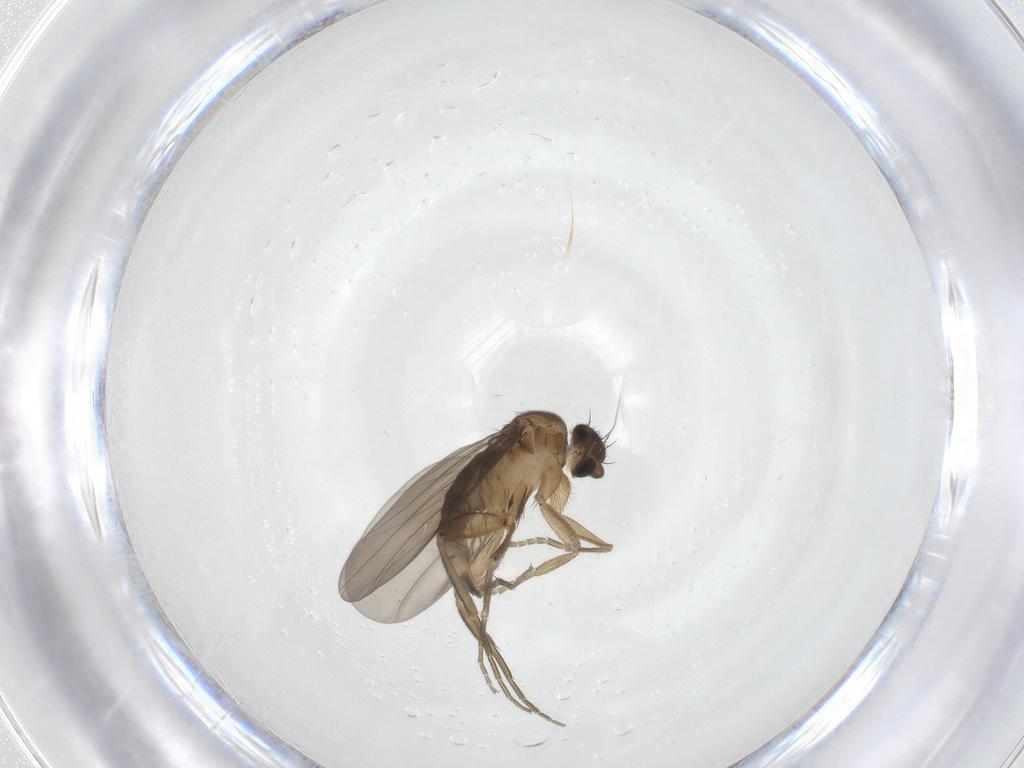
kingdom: Animalia
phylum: Arthropoda
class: Insecta
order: Diptera
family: Phoridae
